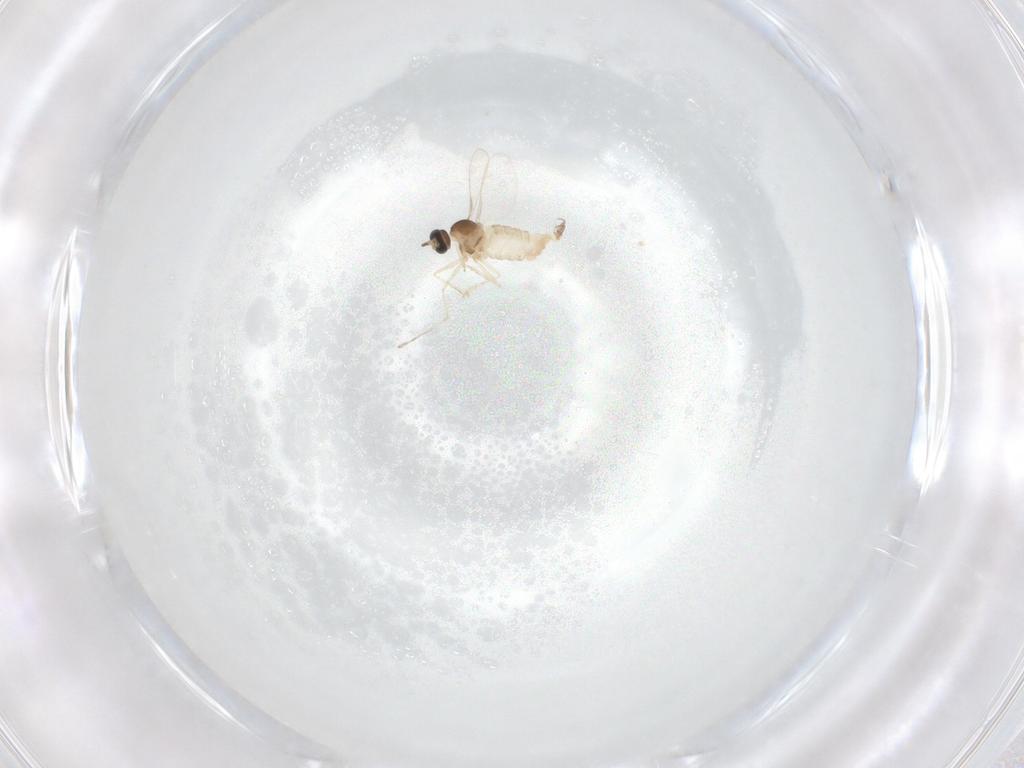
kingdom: Animalia
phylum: Arthropoda
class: Insecta
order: Diptera
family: Cecidomyiidae
